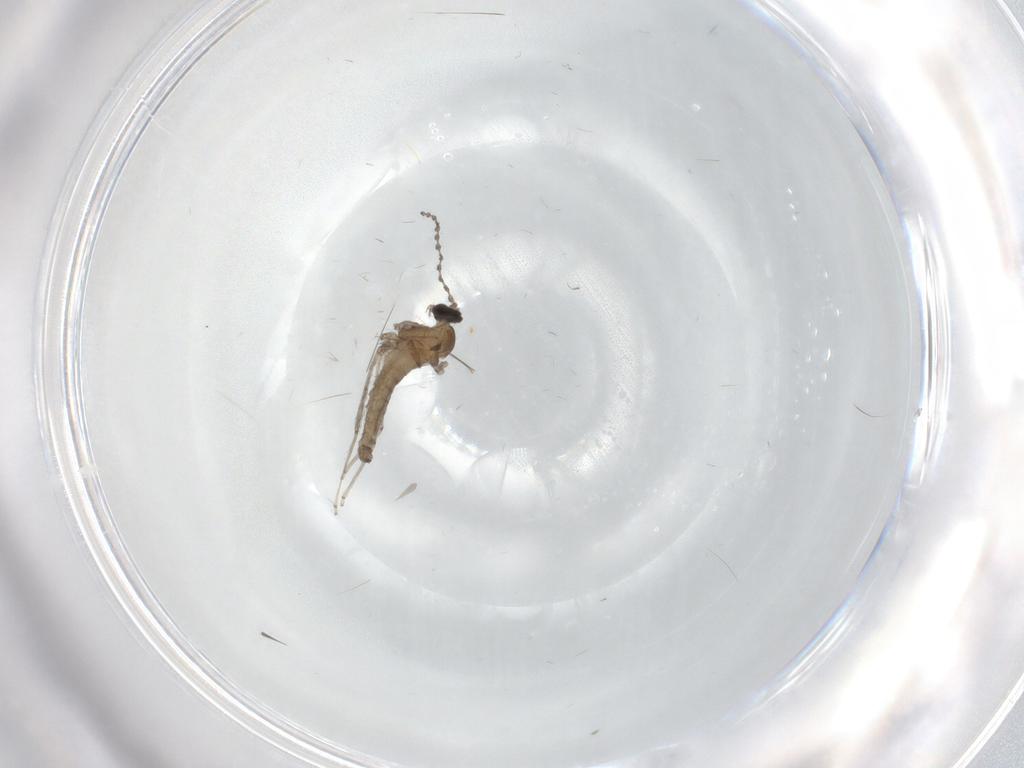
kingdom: Animalia
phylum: Arthropoda
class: Insecta
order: Diptera
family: Cecidomyiidae
